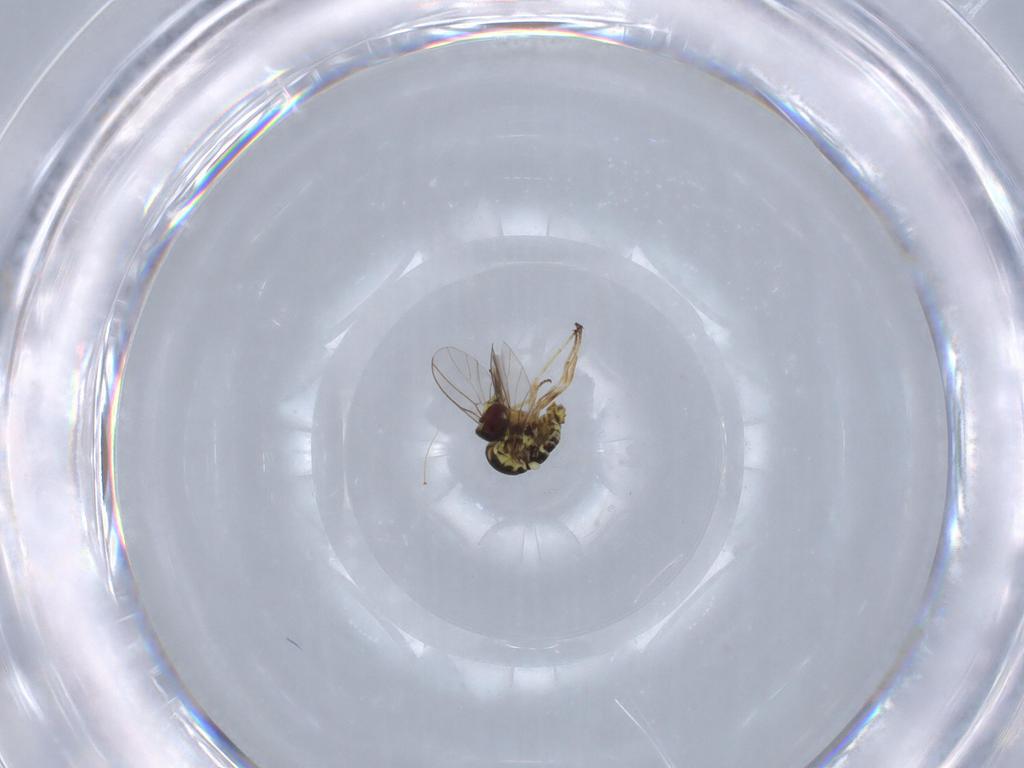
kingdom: Animalia
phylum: Arthropoda
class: Insecta
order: Diptera
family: Mythicomyiidae
